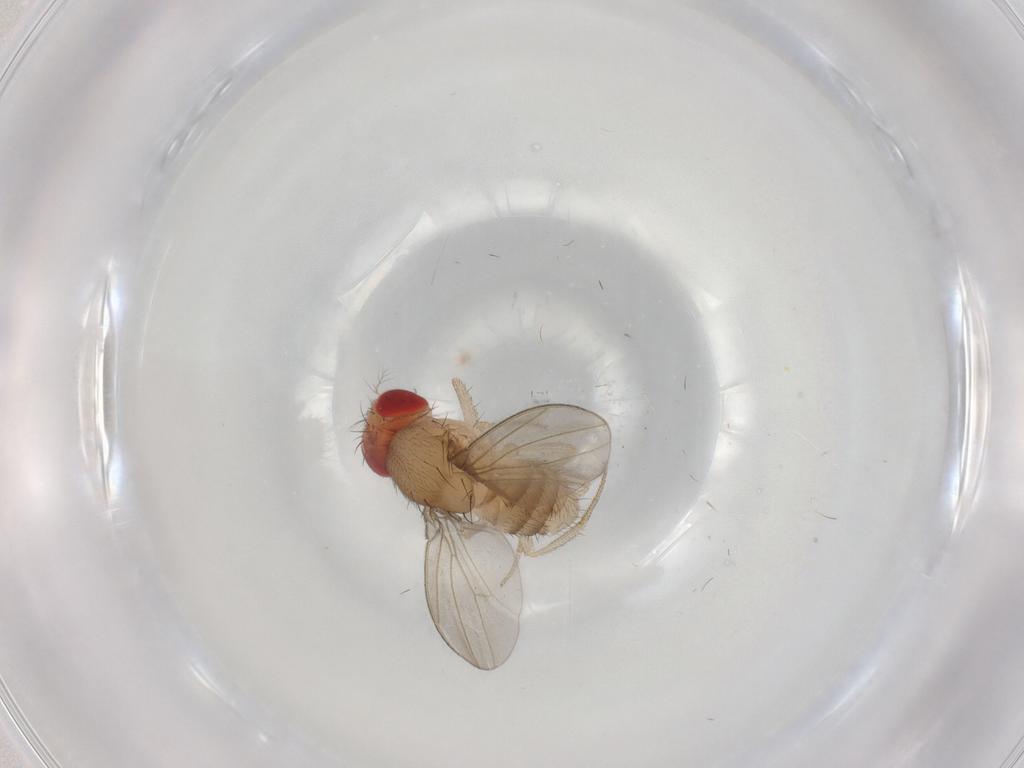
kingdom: Animalia
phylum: Arthropoda
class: Insecta
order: Diptera
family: Drosophilidae
